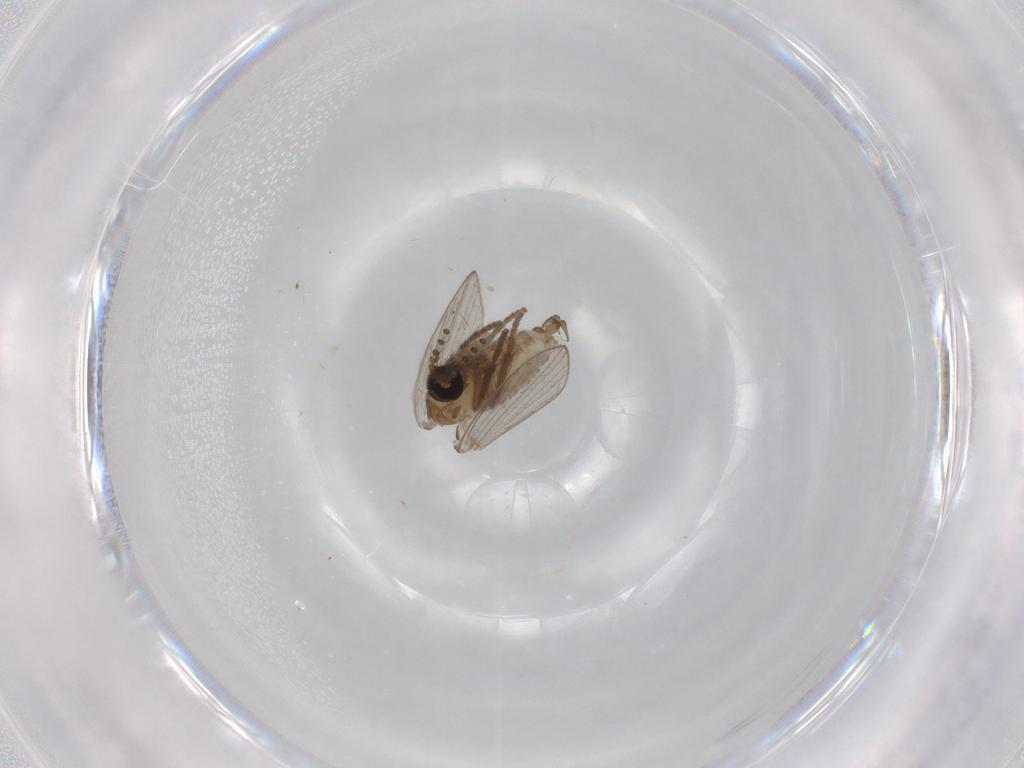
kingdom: Animalia
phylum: Arthropoda
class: Insecta
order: Diptera
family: Psychodidae
